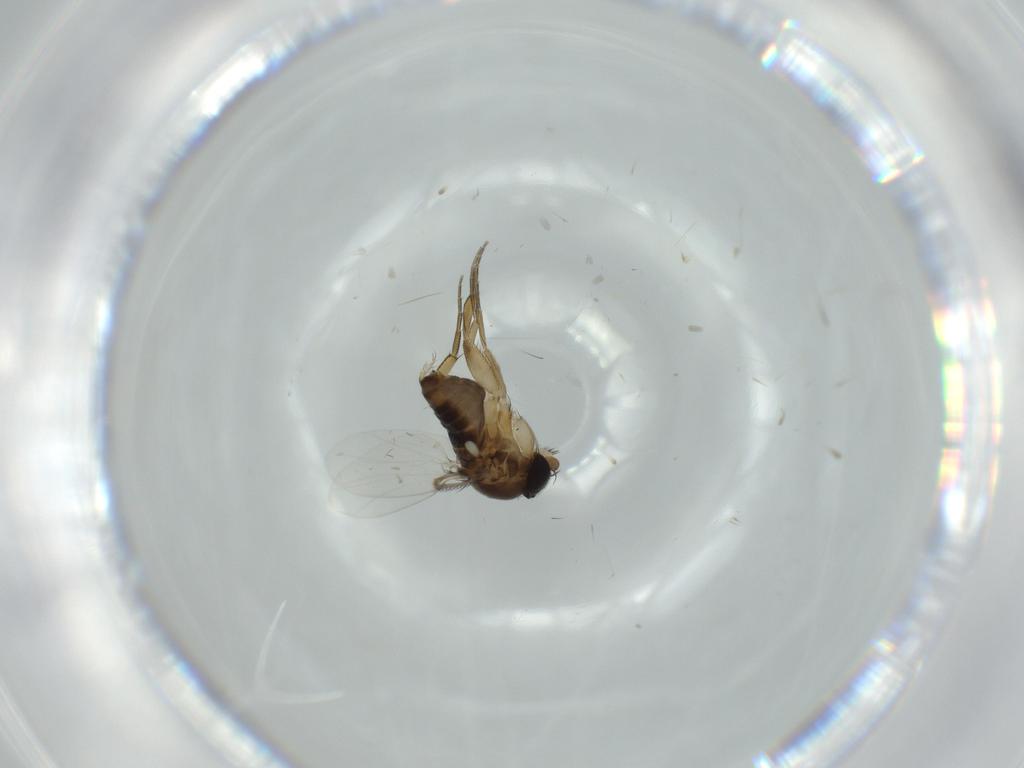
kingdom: Animalia
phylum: Arthropoda
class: Insecta
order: Diptera
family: Phoridae
